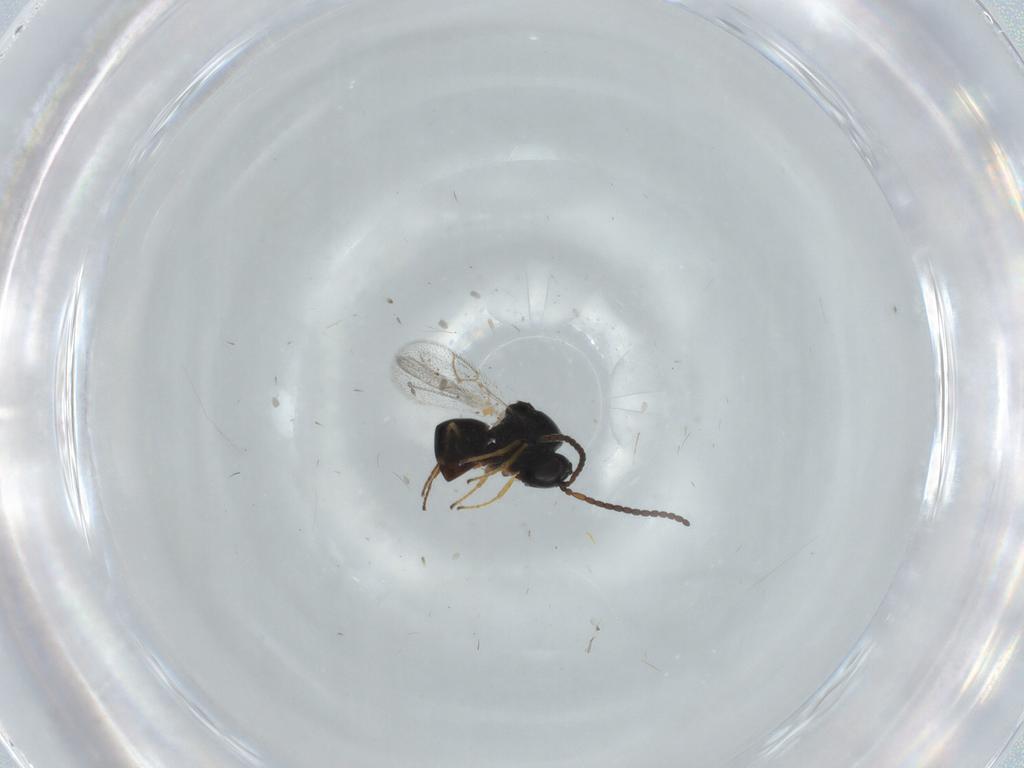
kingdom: Animalia
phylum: Arthropoda
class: Insecta
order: Hymenoptera
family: Figitidae
